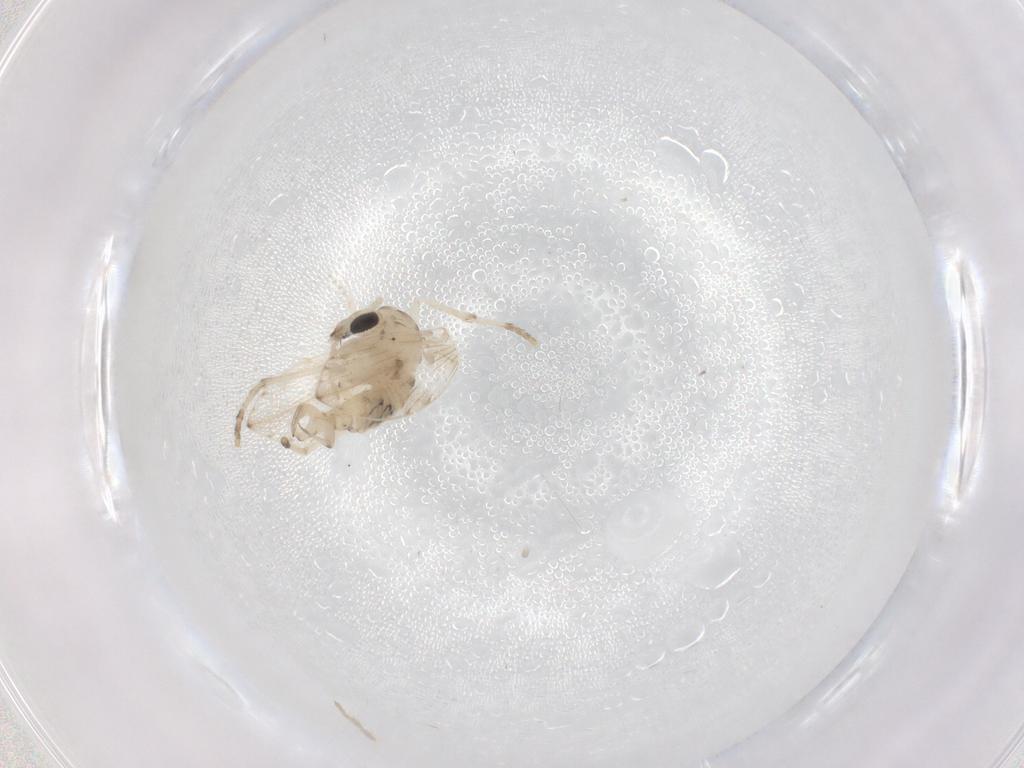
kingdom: Animalia
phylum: Arthropoda
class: Insecta
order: Diptera
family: Psychodidae
